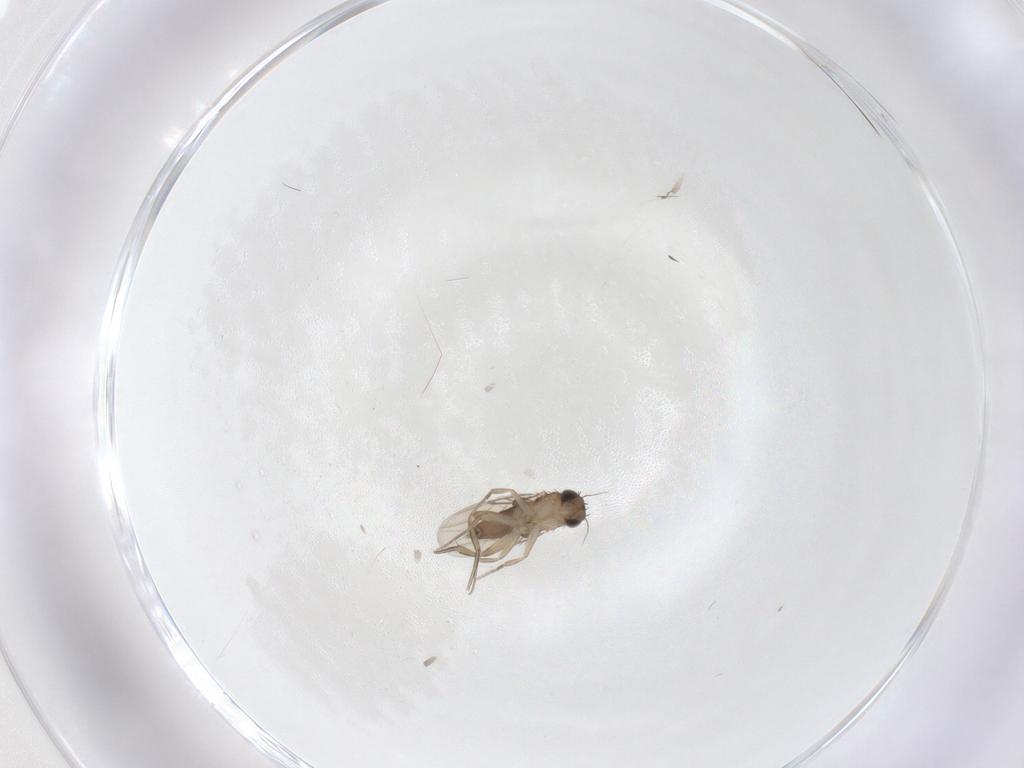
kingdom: Animalia
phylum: Arthropoda
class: Insecta
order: Diptera
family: Phoridae
